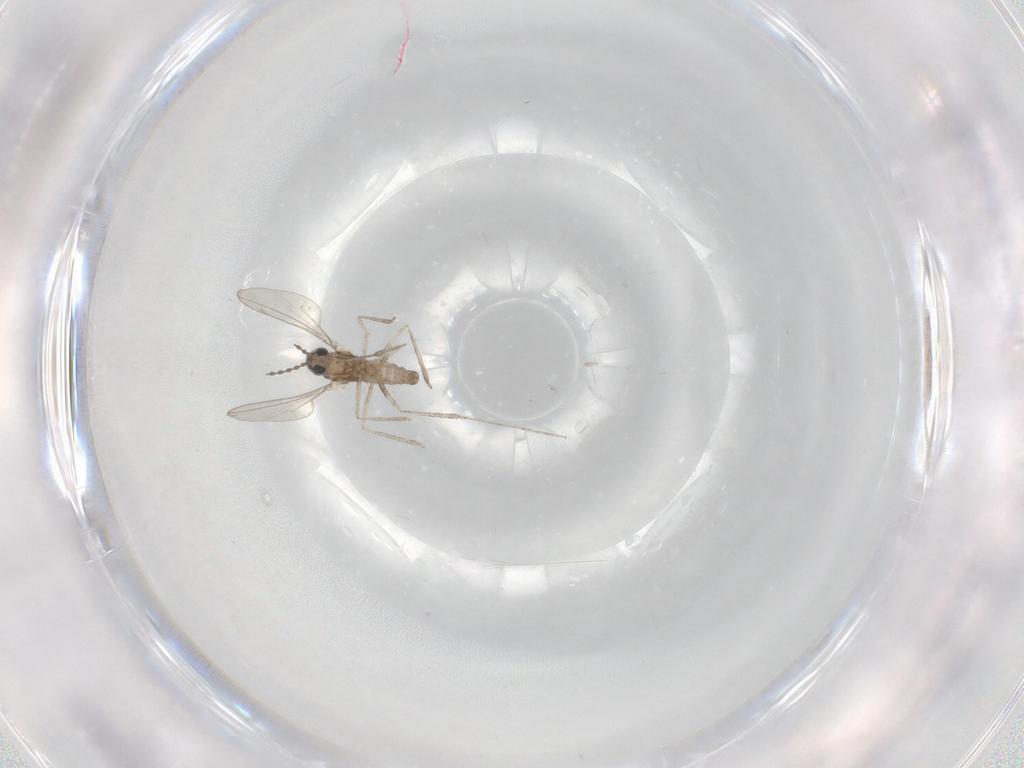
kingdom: Animalia
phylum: Arthropoda
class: Insecta
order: Diptera
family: Cecidomyiidae
